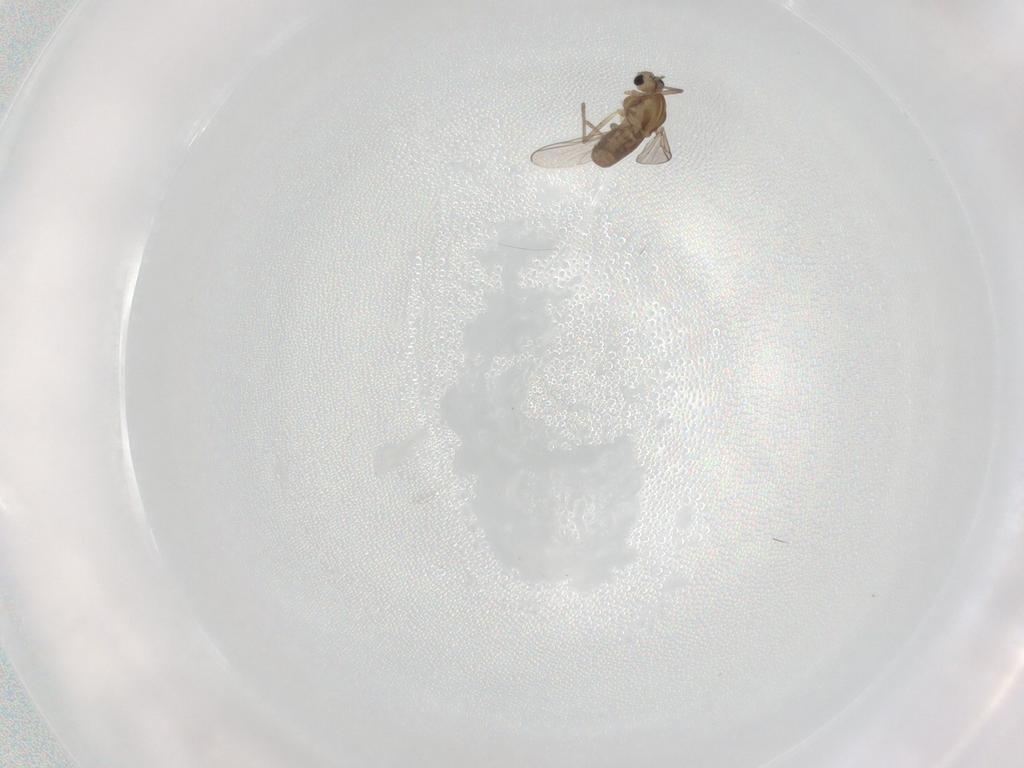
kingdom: Animalia
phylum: Arthropoda
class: Insecta
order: Diptera
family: Chironomidae
